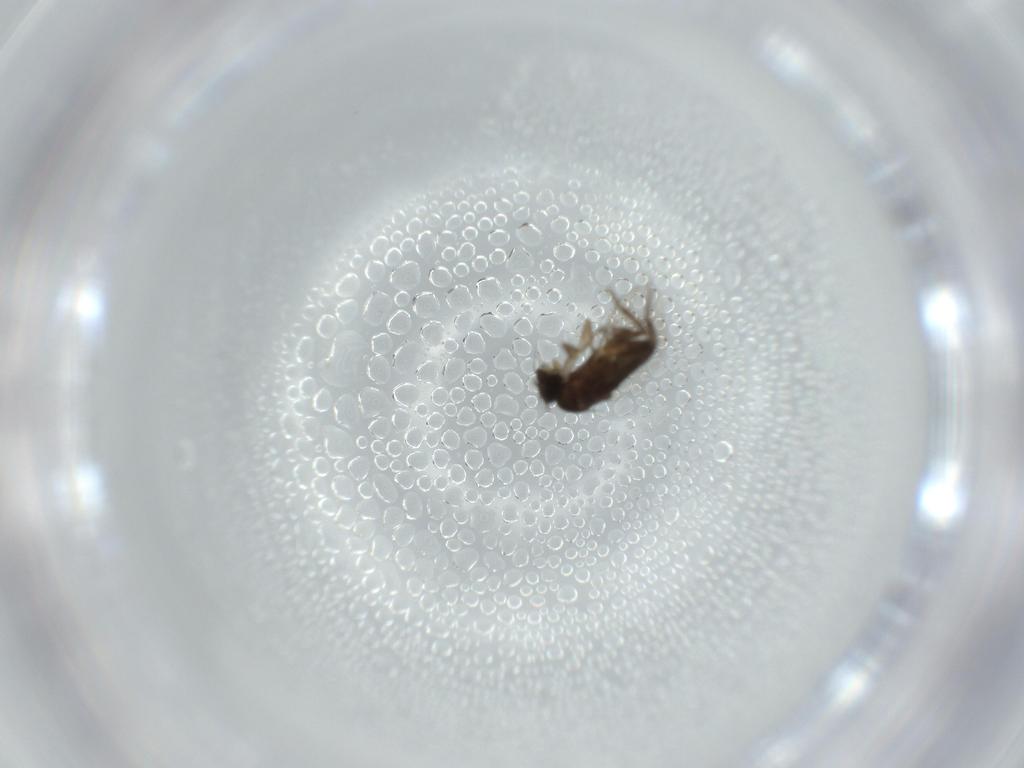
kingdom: Animalia
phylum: Arthropoda
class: Insecta
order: Diptera
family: Phoridae
